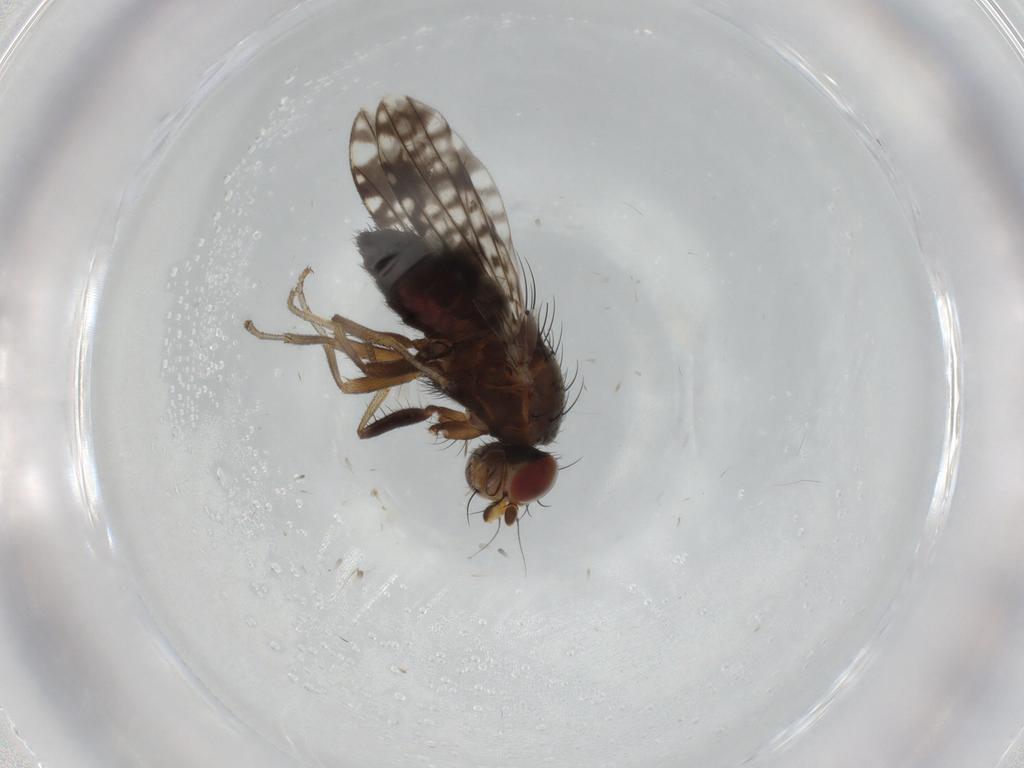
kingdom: Animalia
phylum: Arthropoda
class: Insecta
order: Diptera
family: Tephritidae
